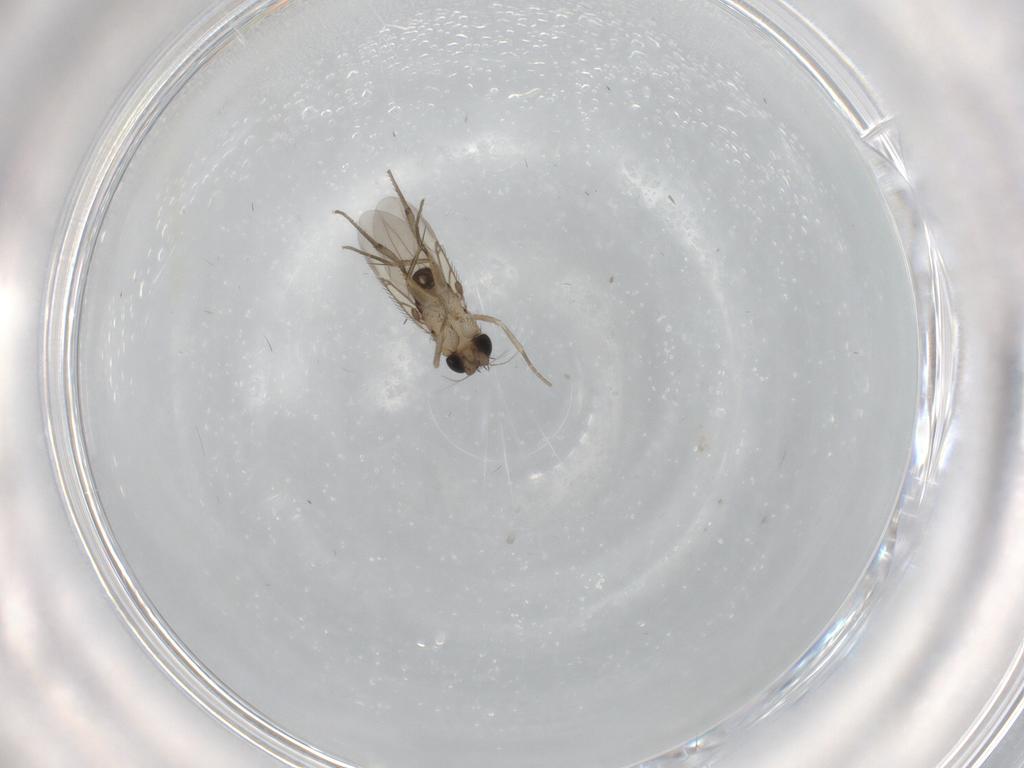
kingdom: Animalia
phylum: Arthropoda
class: Insecta
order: Diptera
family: Phoridae
